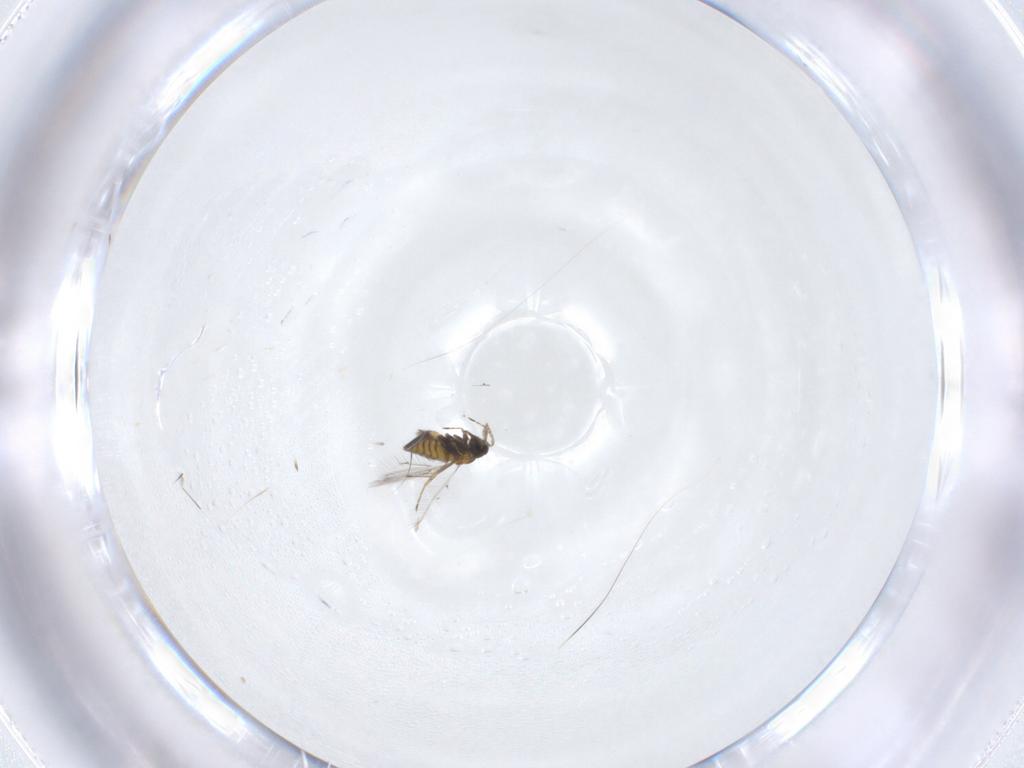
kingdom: Animalia
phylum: Arthropoda
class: Insecta
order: Hymenoptera
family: Trichogrammatidae
